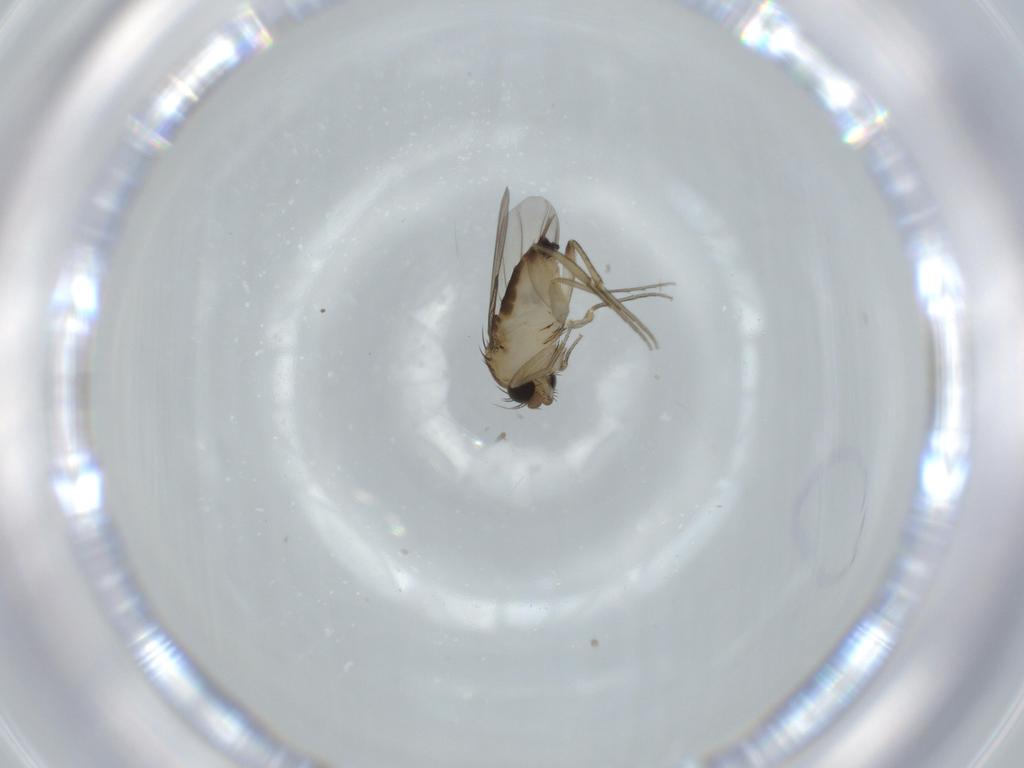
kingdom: Animalia
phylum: Arthropoda
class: Insecta
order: Diptera
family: Phoridae
